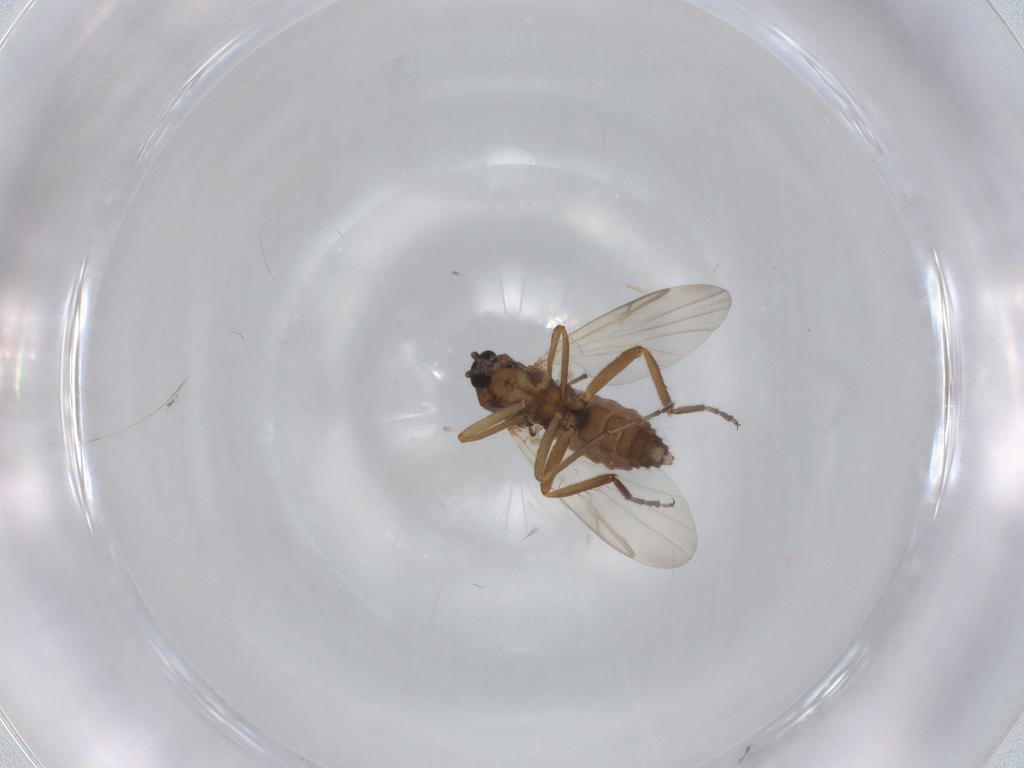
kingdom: Animalia
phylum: Arthropoda
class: Insecta
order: Diptera
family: Ceratopogonidae
